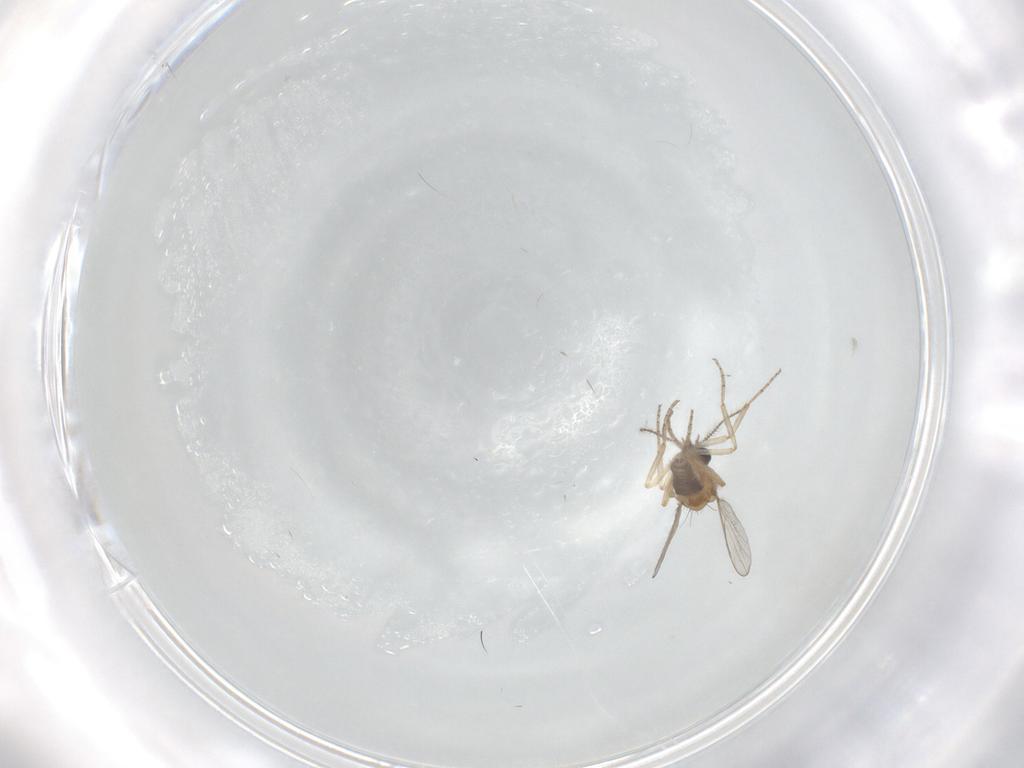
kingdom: Animalia
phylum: Arthropoda
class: Insecta
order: Diptera
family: Ceratopogonidae
